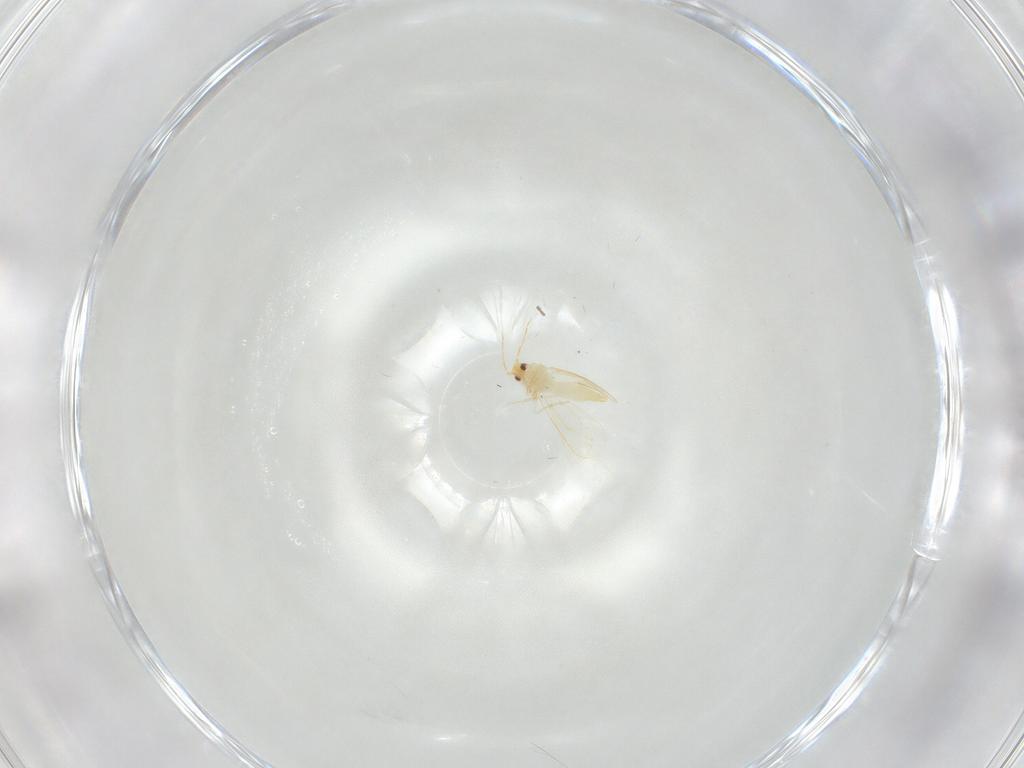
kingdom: Animalia
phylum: Arthropoda
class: Insecta
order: Hemiptera
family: Aleyrodidae
